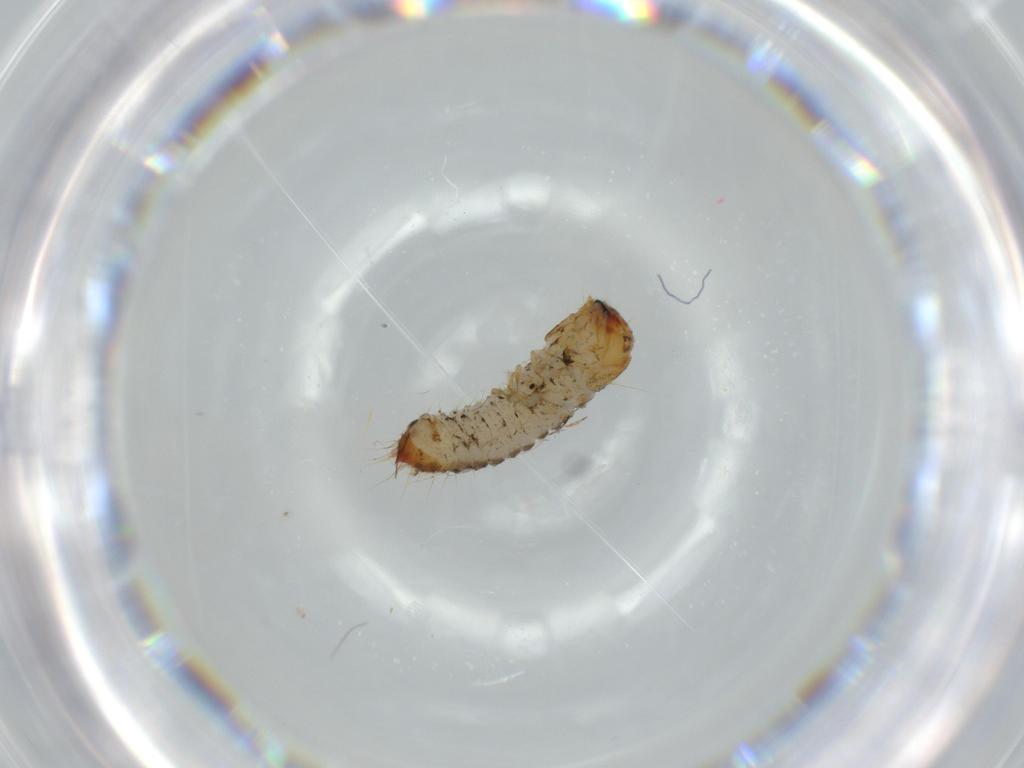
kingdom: Animalia
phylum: Arthropoda
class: Insecta
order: Coleoptera
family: Lymexylidae
